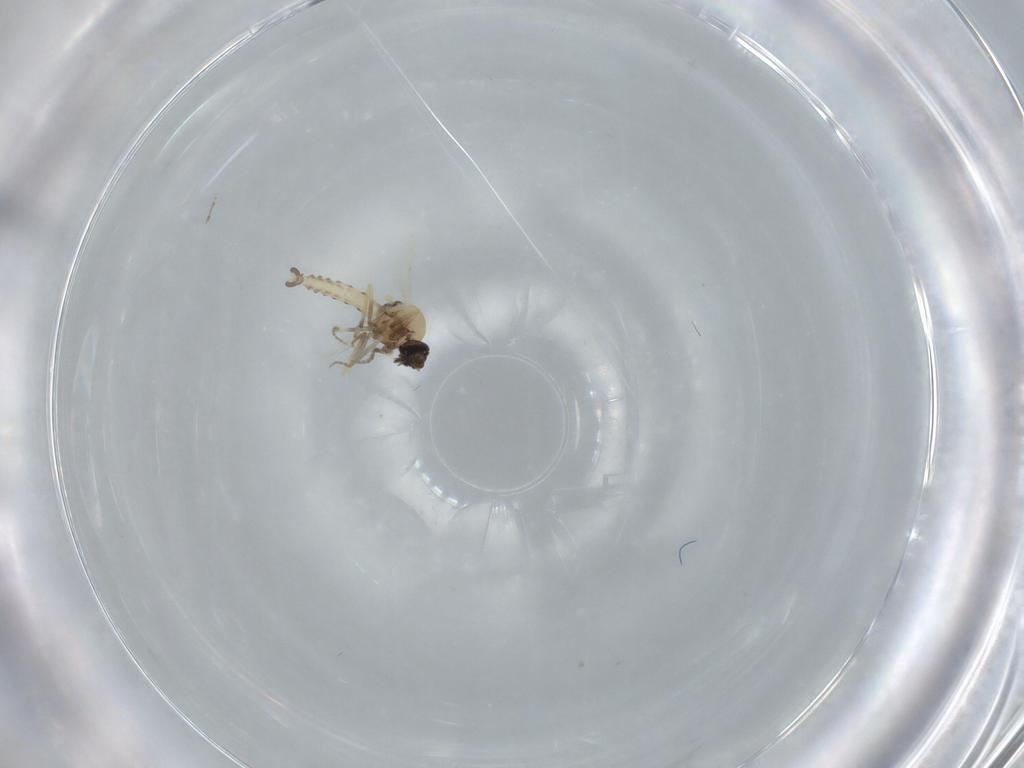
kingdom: Animalia
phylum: Arthropoda
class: Insecta
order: Diptera
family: Ceratopogonidae
